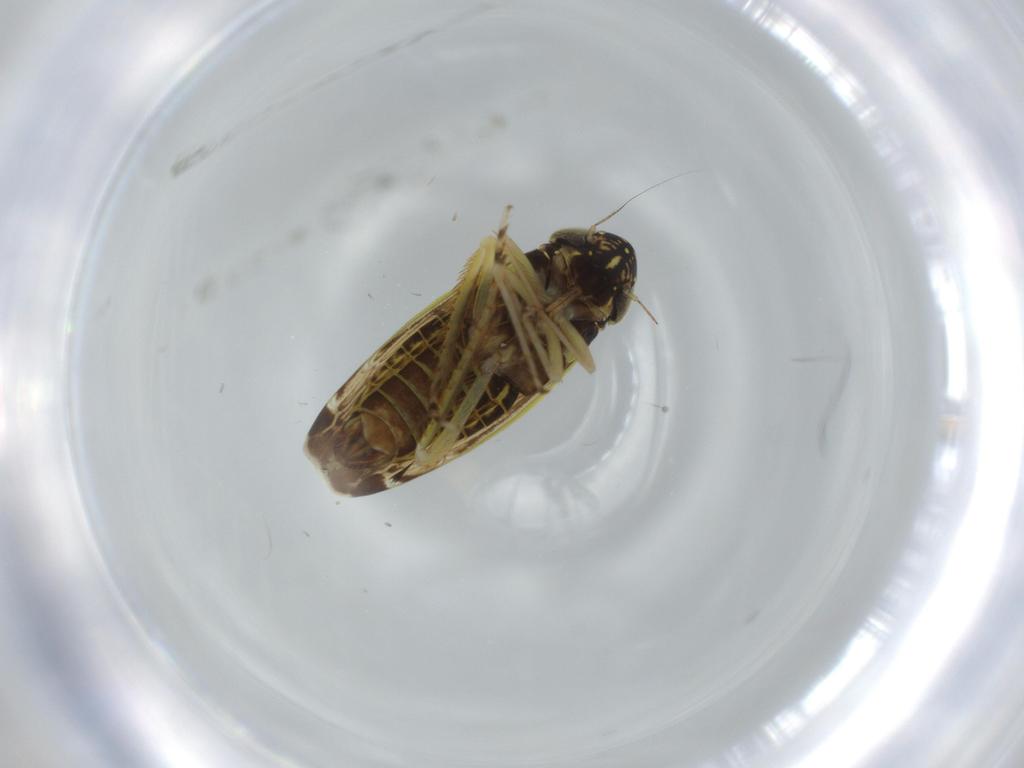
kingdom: Animalia
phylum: Arthropoda
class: Insecta
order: Hemiptera
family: Cicadellidae
